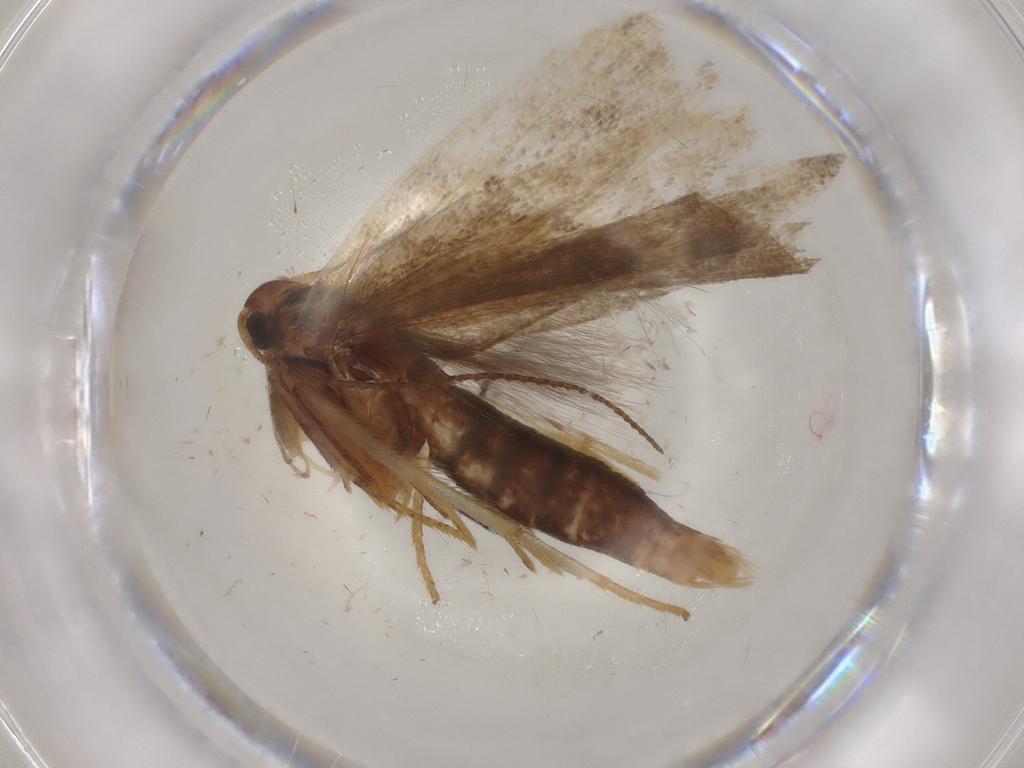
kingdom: Animalia
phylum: Arthropoda
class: Insecta
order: Lepidoptera
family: Gelechiidae
